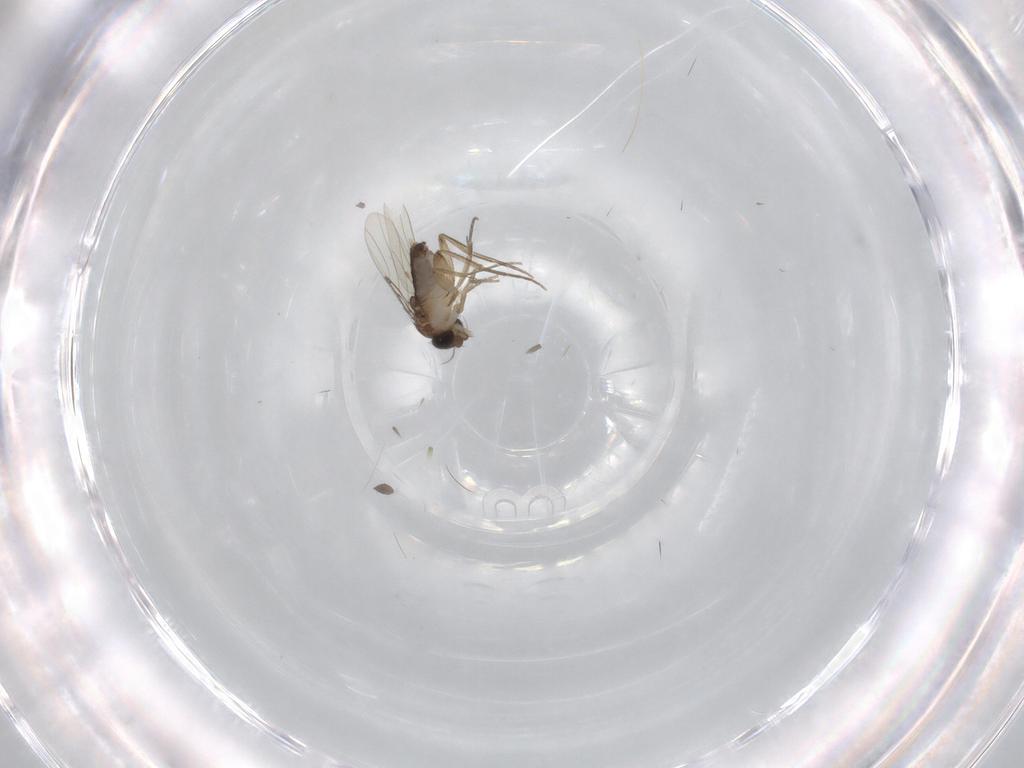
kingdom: Animalia
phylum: Arthropoda
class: Insecta
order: Diptera
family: Phoridae
